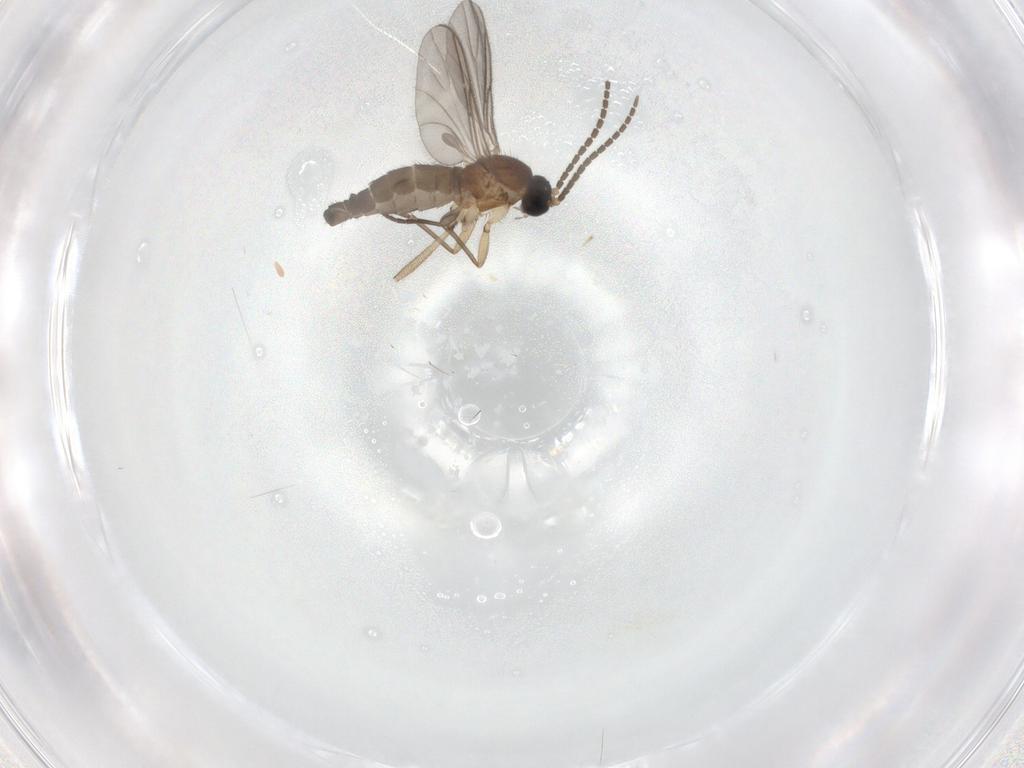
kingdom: Animalia
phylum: Arthropoda
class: Insecta
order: Diptera
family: Sciaridae
